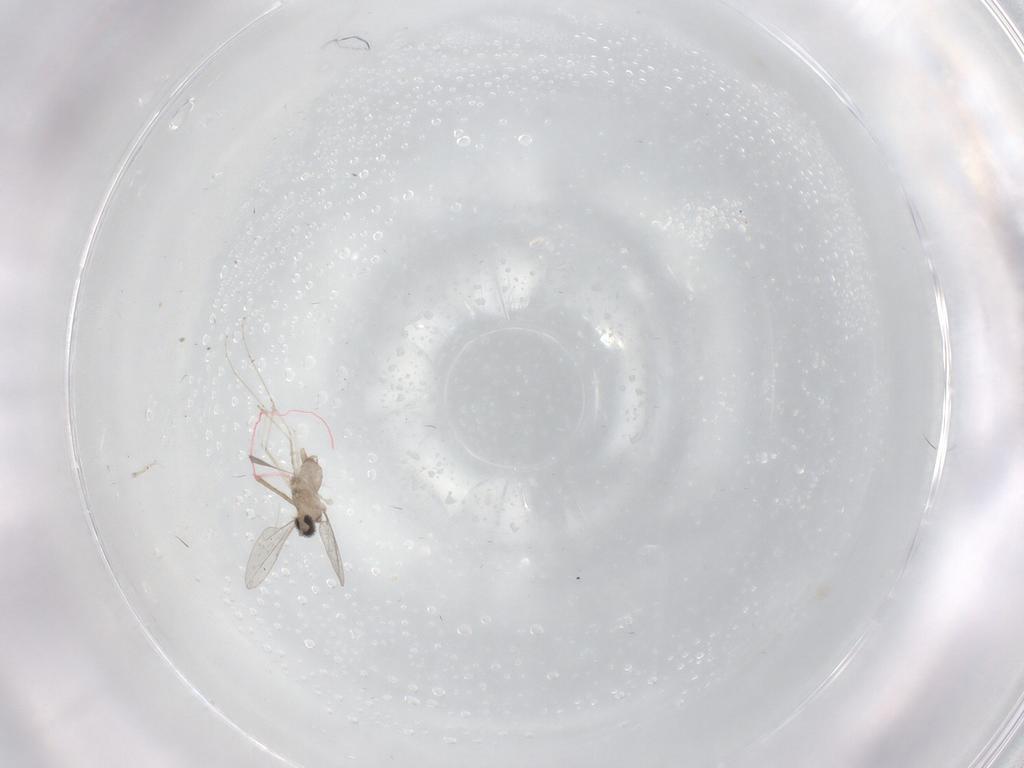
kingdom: Animalia
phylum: Arthropoda
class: Insecta
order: Diptera
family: Cecidomyiidae
